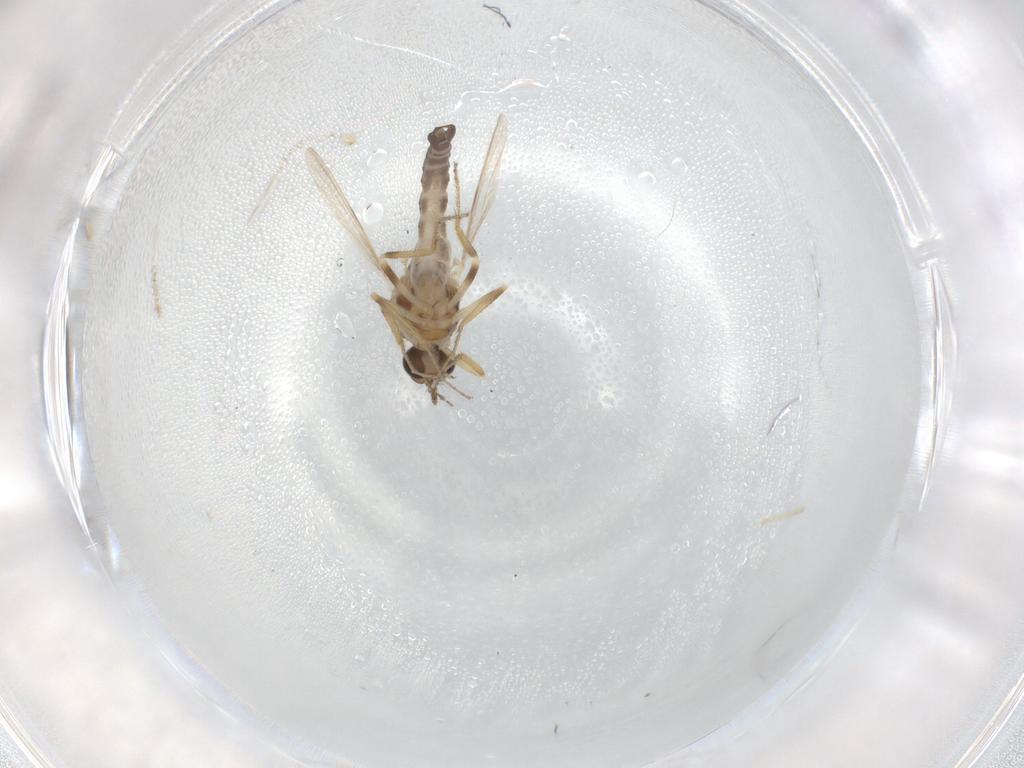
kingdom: Animalia
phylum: Arthropoda
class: Insecta
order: Diptera
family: Ceratopogonidae
